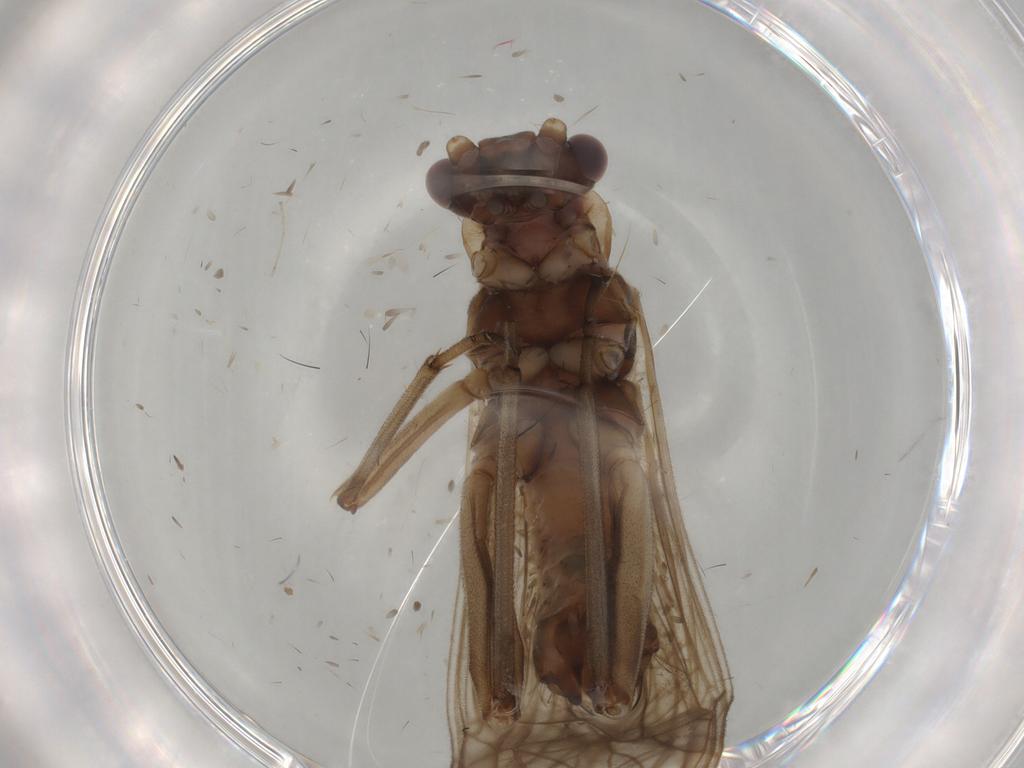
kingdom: Animalia
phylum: Arthropoda
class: Insecta
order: Plecoptera
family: Nemouridae
